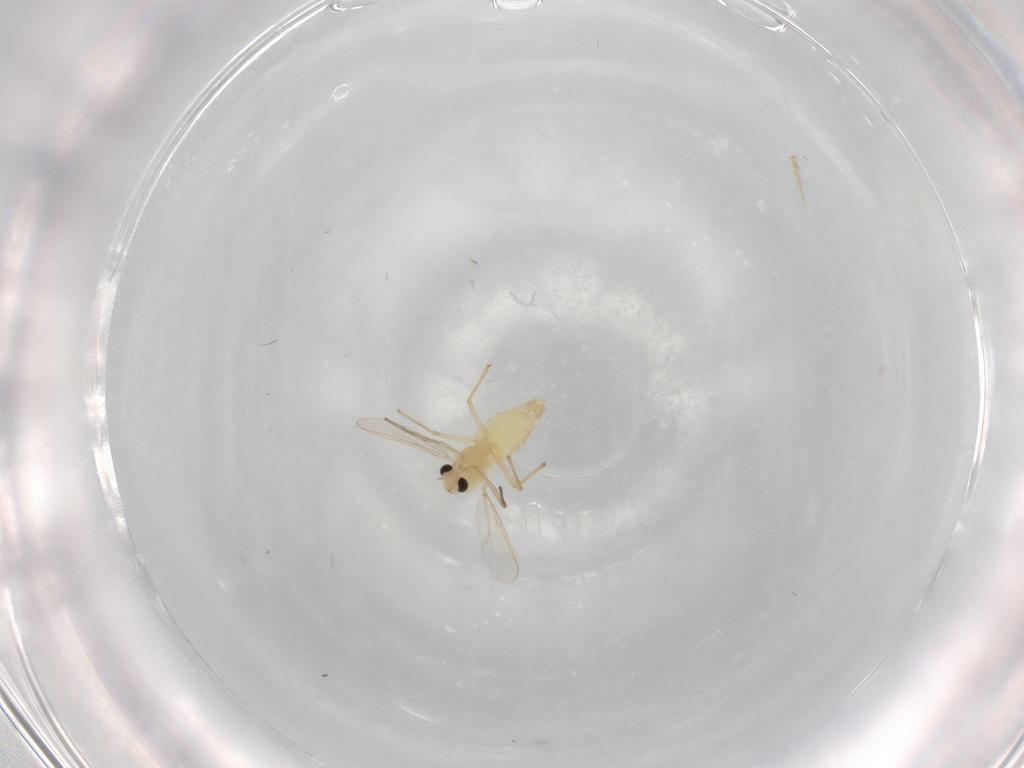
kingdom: Animalia
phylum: Arthropoda
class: Insecta
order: Diptera
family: Chironomidae
